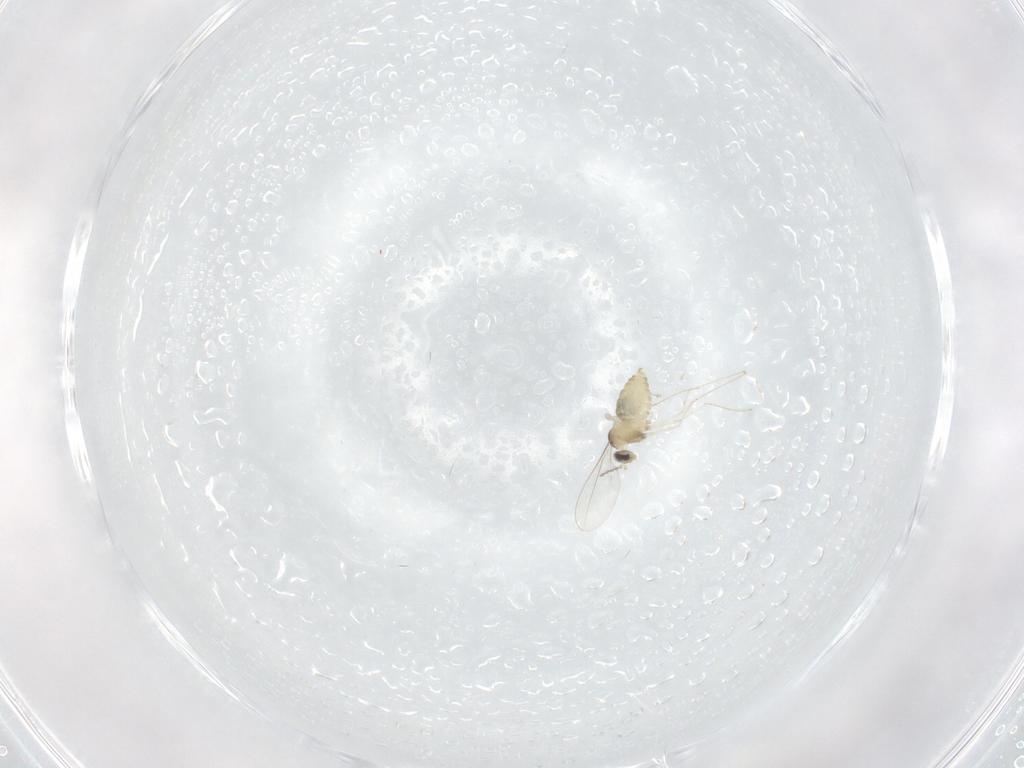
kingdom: Animalia
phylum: Arthropoda
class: Insecta
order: Diptera
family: Cecidomyiidae
